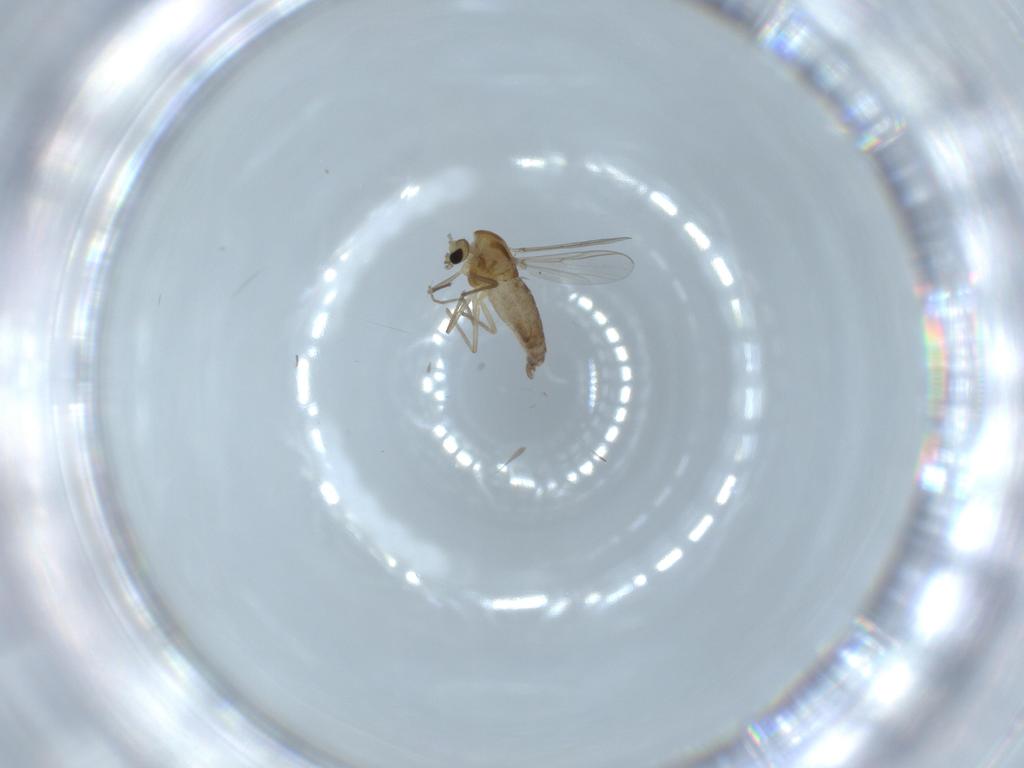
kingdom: Animalia
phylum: Arthropoda
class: Insecta
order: Diptera
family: Chironomidae
